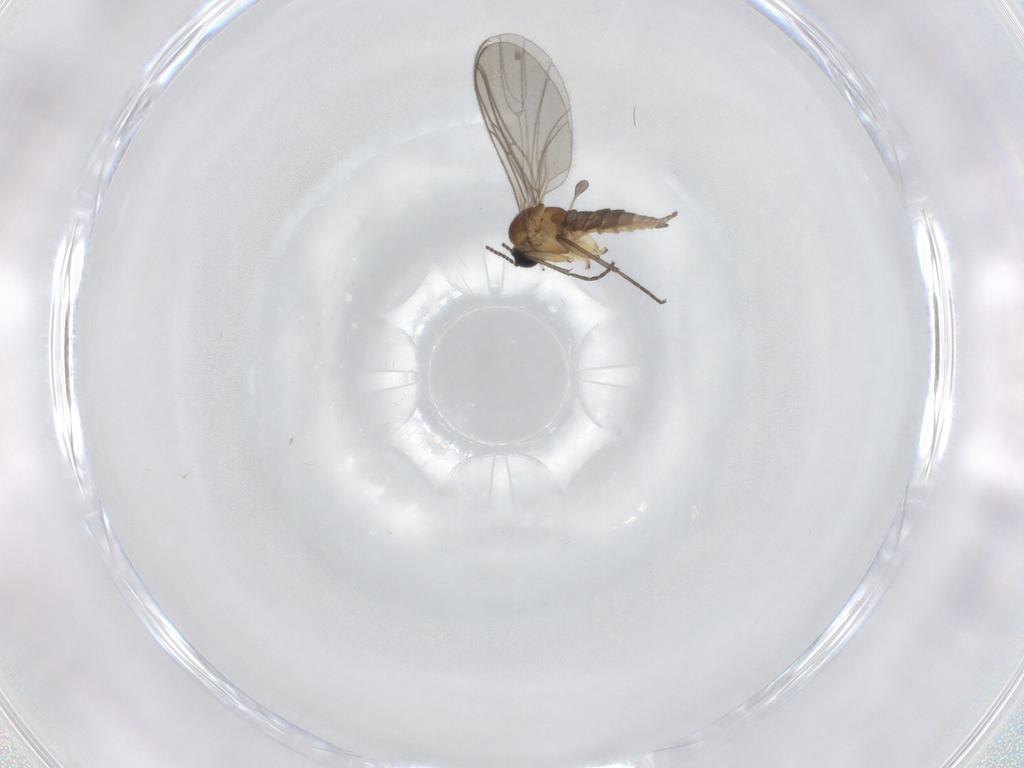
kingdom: Animalia
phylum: Arthropoda
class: Insecta
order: Diptera
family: Sciaridae
